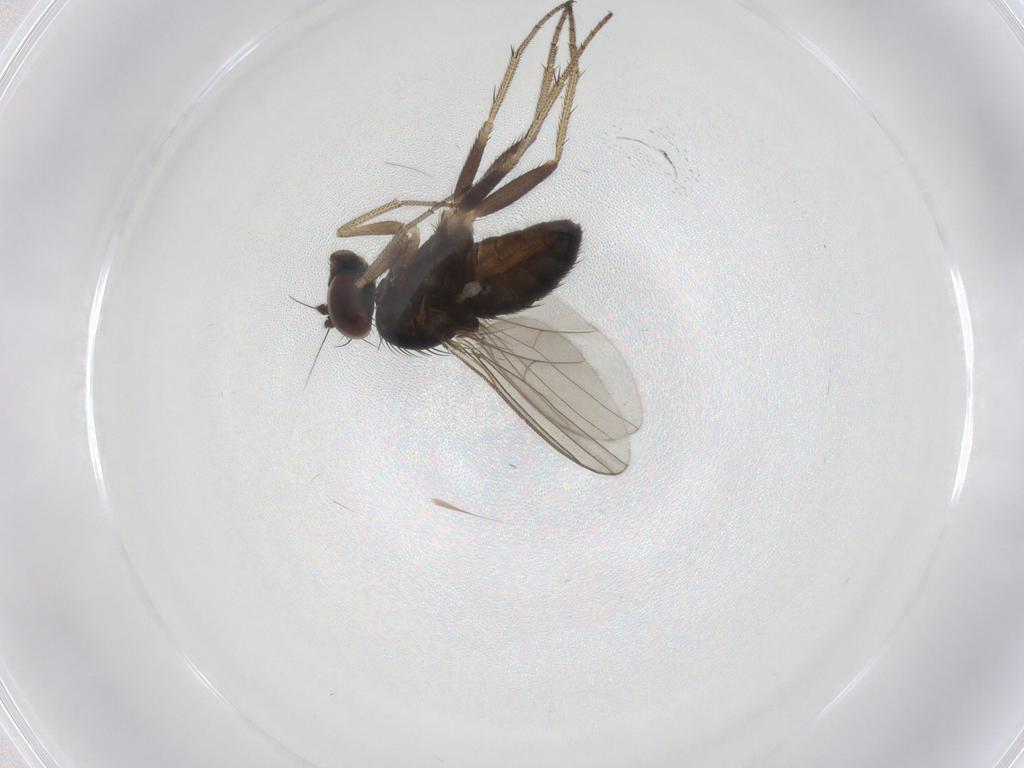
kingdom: Animalia
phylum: Arthropoda
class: Insecta
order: Diptera
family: Dolichopodidae
